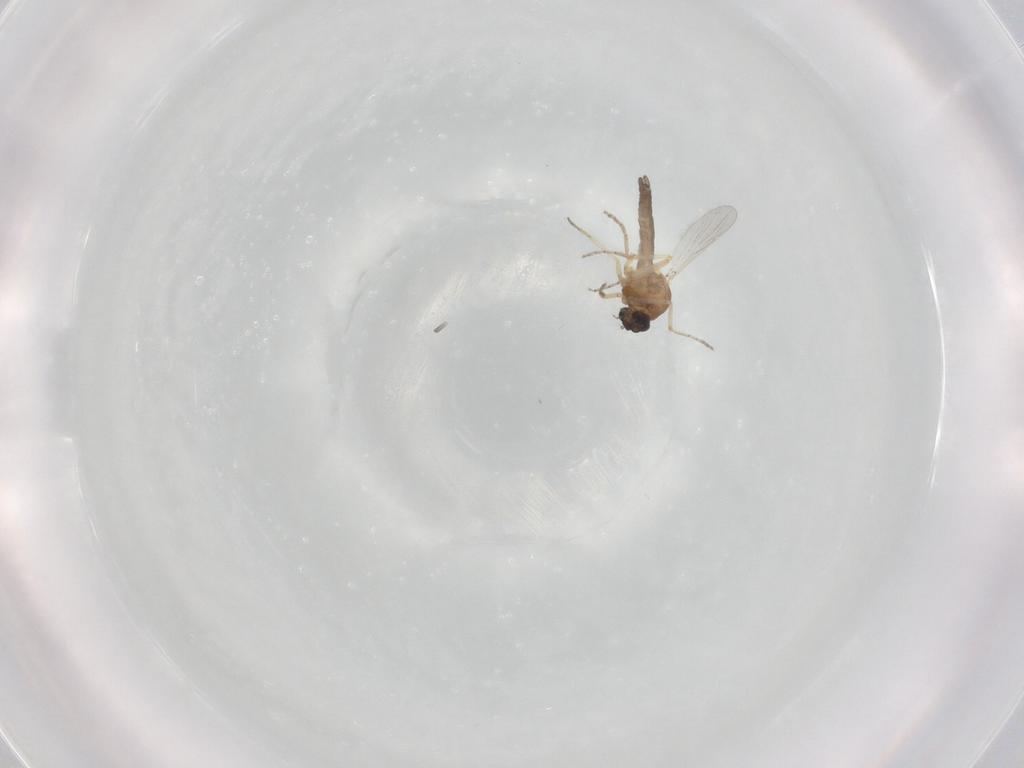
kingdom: Animalia
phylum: Arthropoda
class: Insecta
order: Diptera
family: Ceratopogonidae
